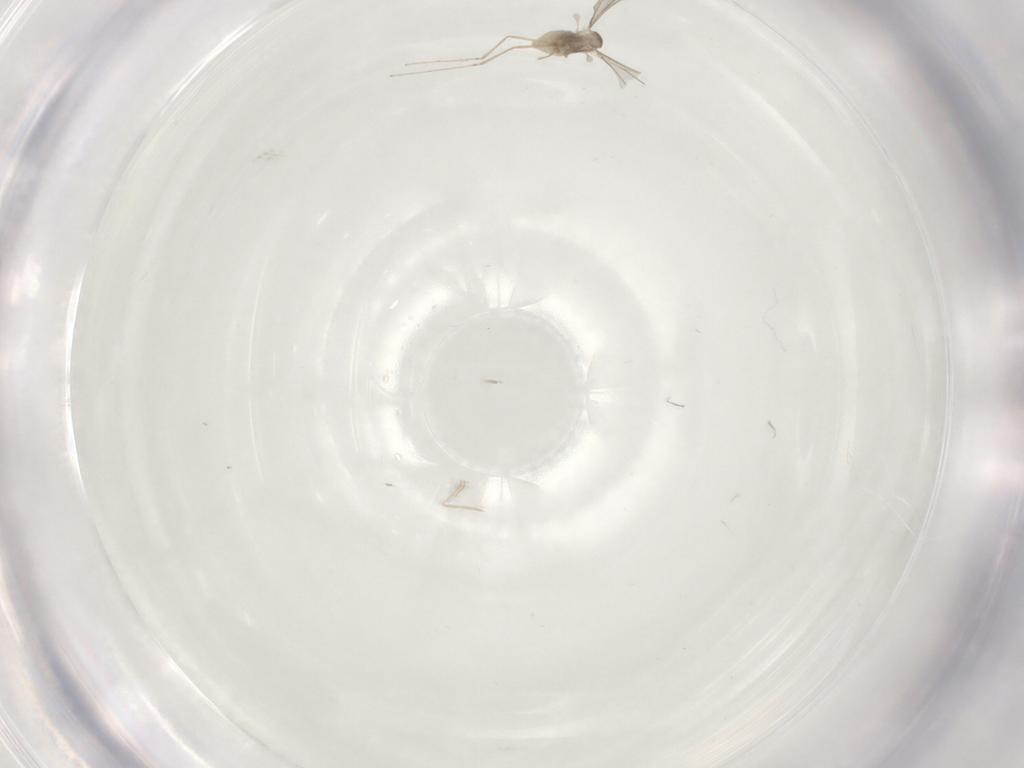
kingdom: Animalia
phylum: Arthropoda
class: Insecta
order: Diptera
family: Cecidomyiidae
